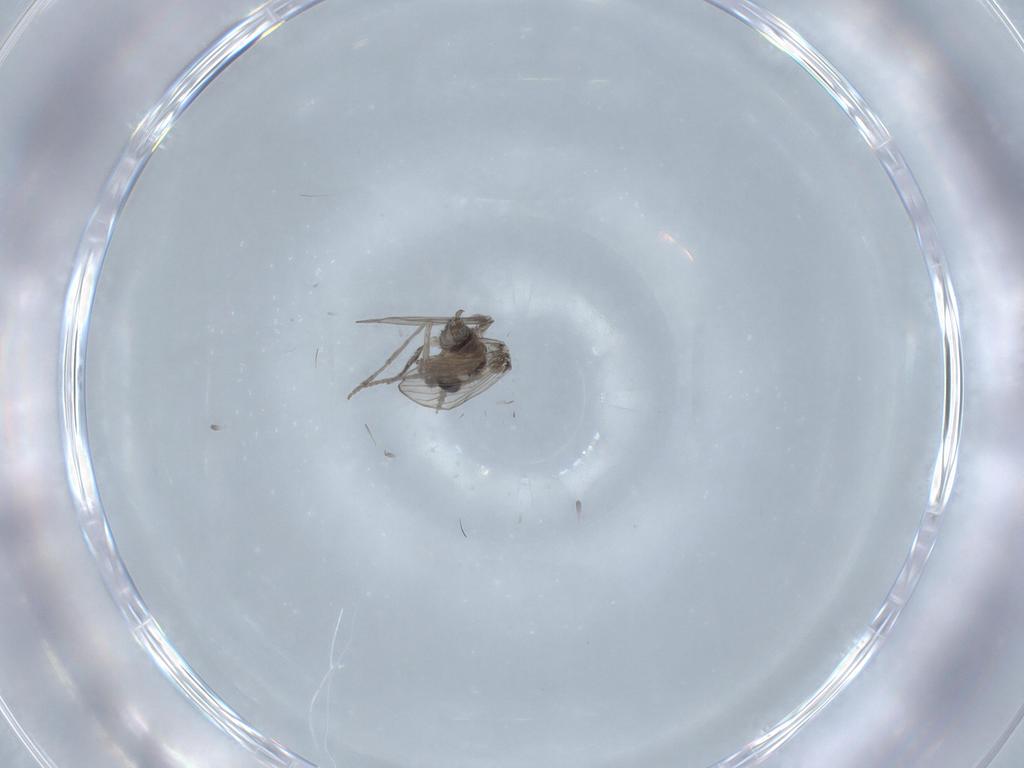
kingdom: Animalia
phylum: Arthropoda
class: Insecta
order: Diptera
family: Psychodidae
